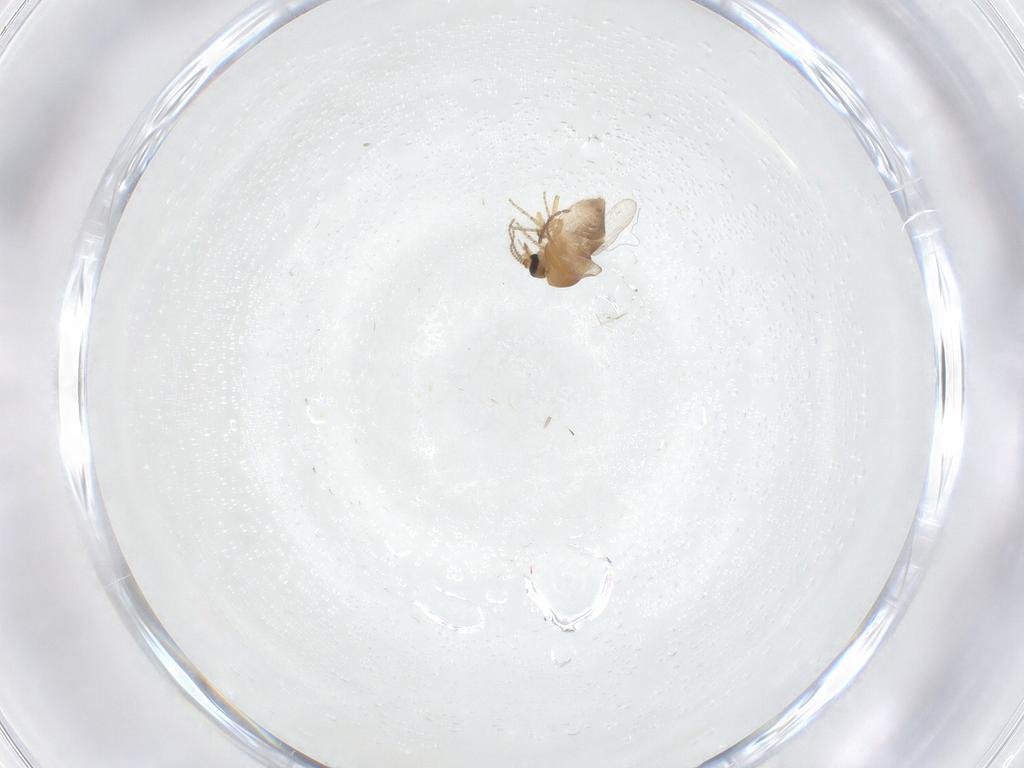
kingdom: Animalia
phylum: Arthropoda
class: Insecta
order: Diptera
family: Ceratopogonidae
